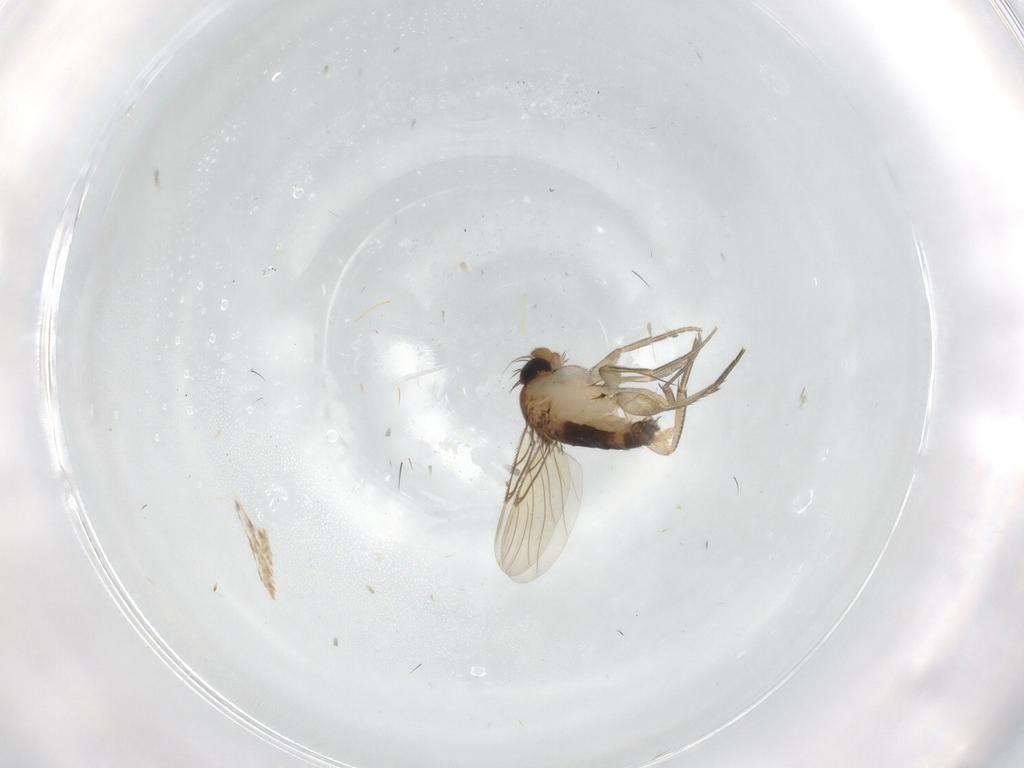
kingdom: Animalia
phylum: Arthropoda
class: Insecta
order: Diptera
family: Phoridae
